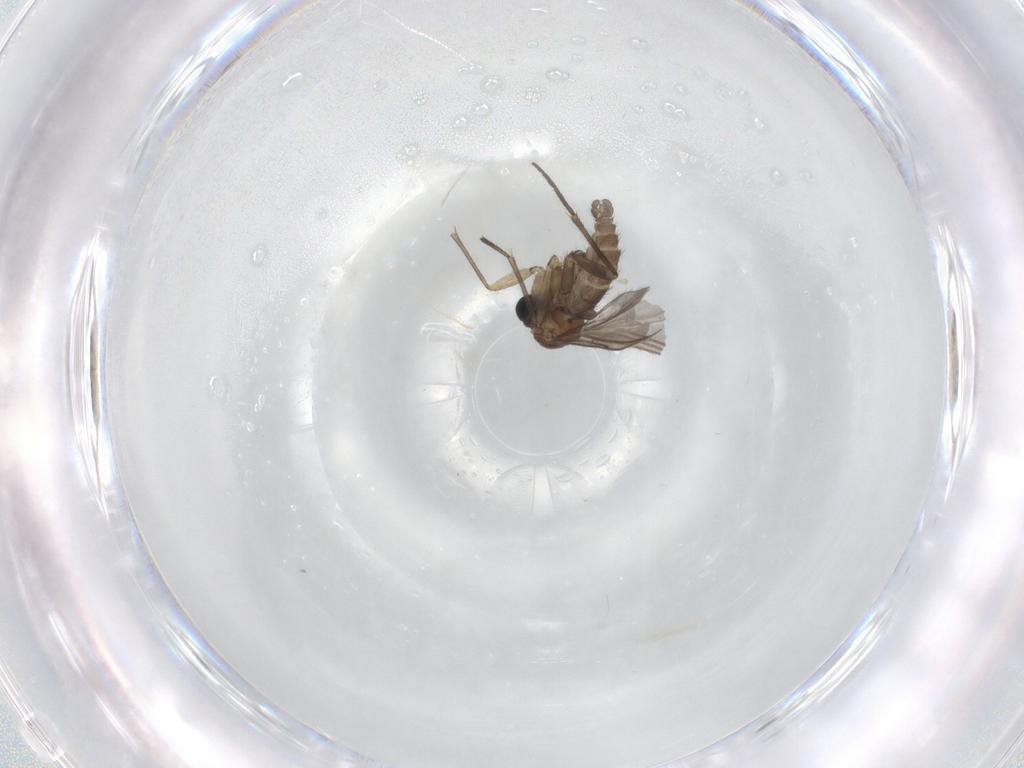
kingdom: Animalia
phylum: Arthropoda
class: Insecta
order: Diptera
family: Sciaridae
